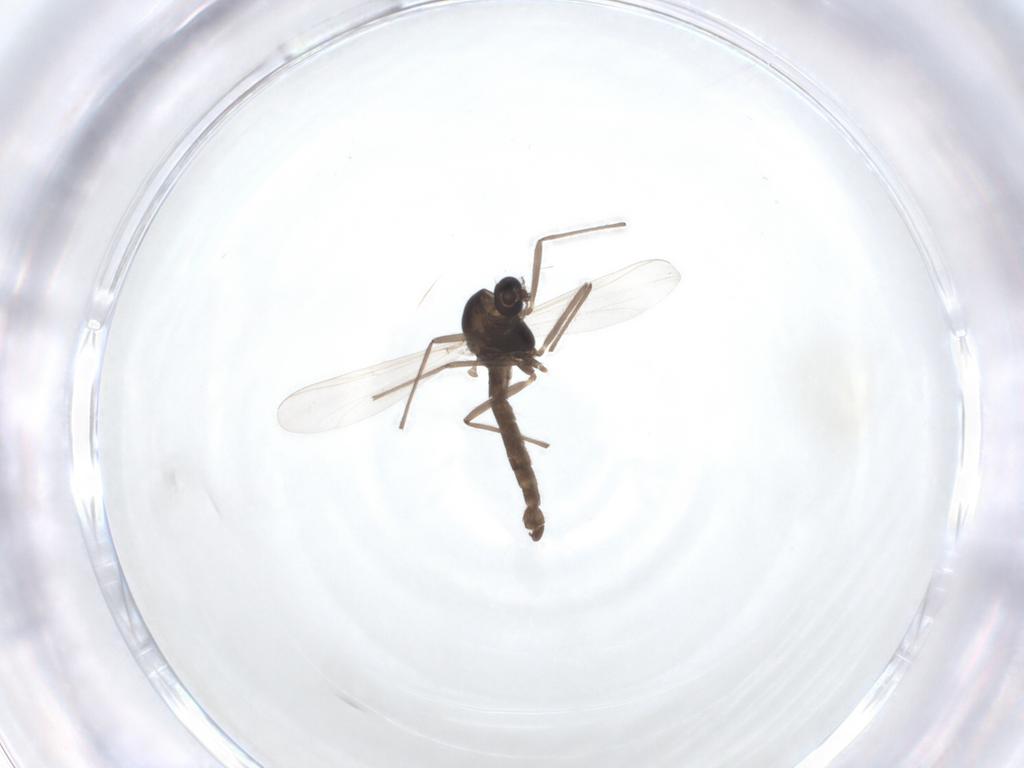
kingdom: Animalia
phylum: Arthropoda
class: Insecta
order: Diptera
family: Chironomidae
